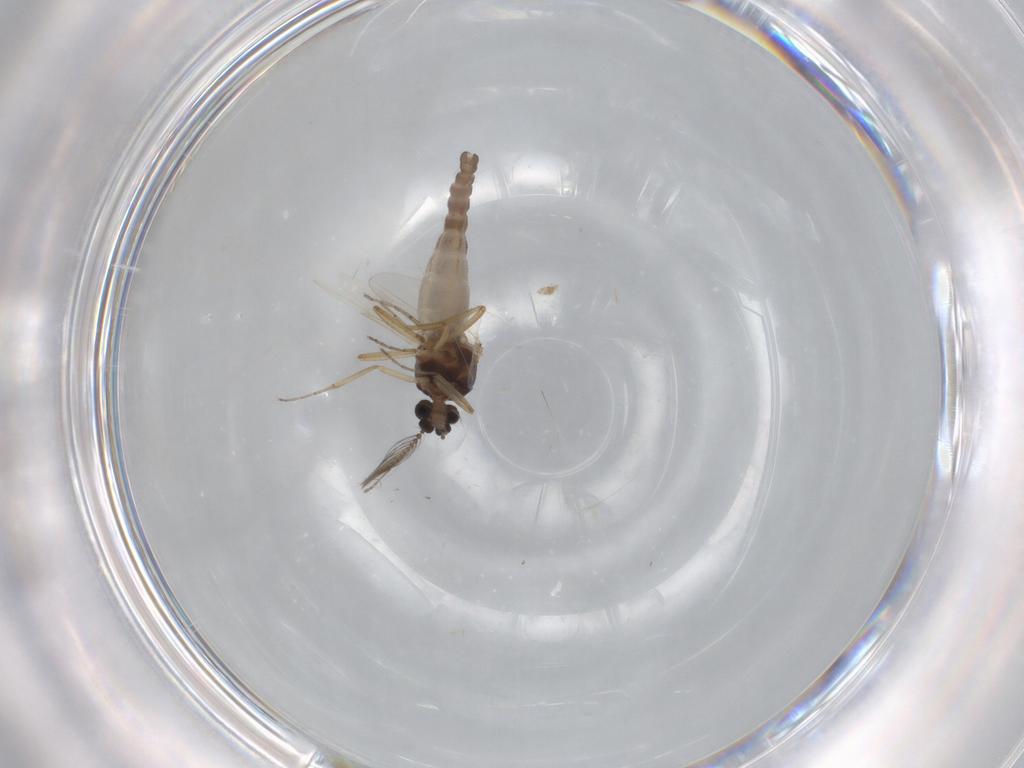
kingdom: Animalia
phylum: Arthropoda
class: Insecta
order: Diptera
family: Ceratopogonidae
